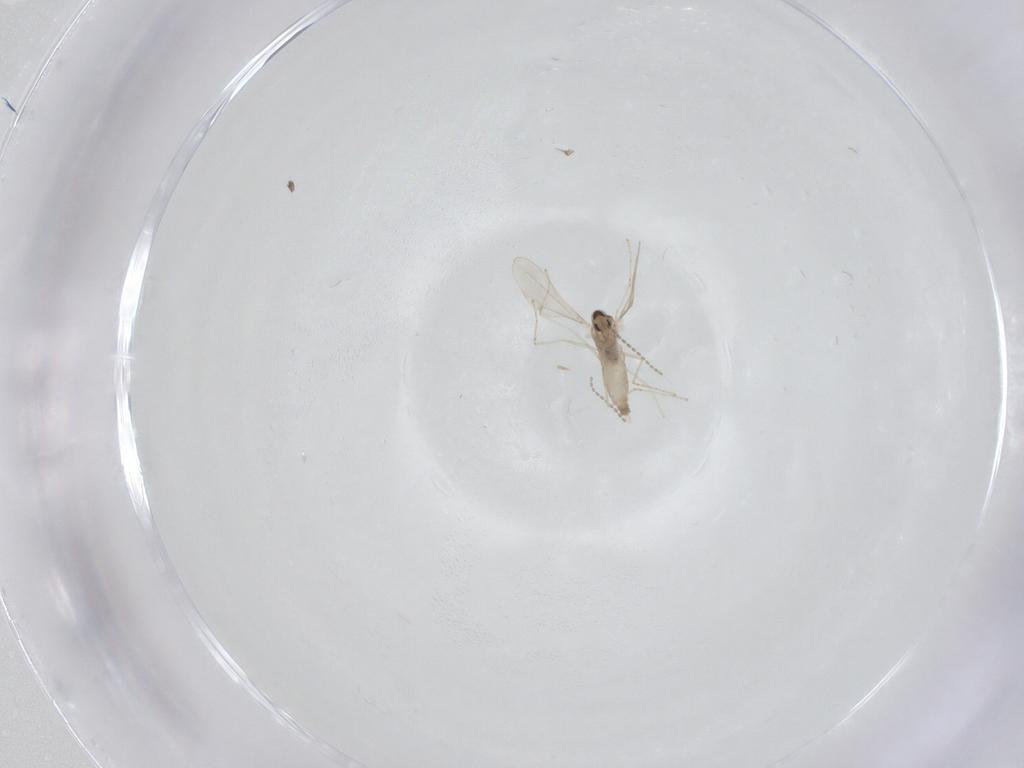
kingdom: Animalia
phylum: Arthropoda
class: Insecta
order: Diptera
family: Cecidomyiidae
